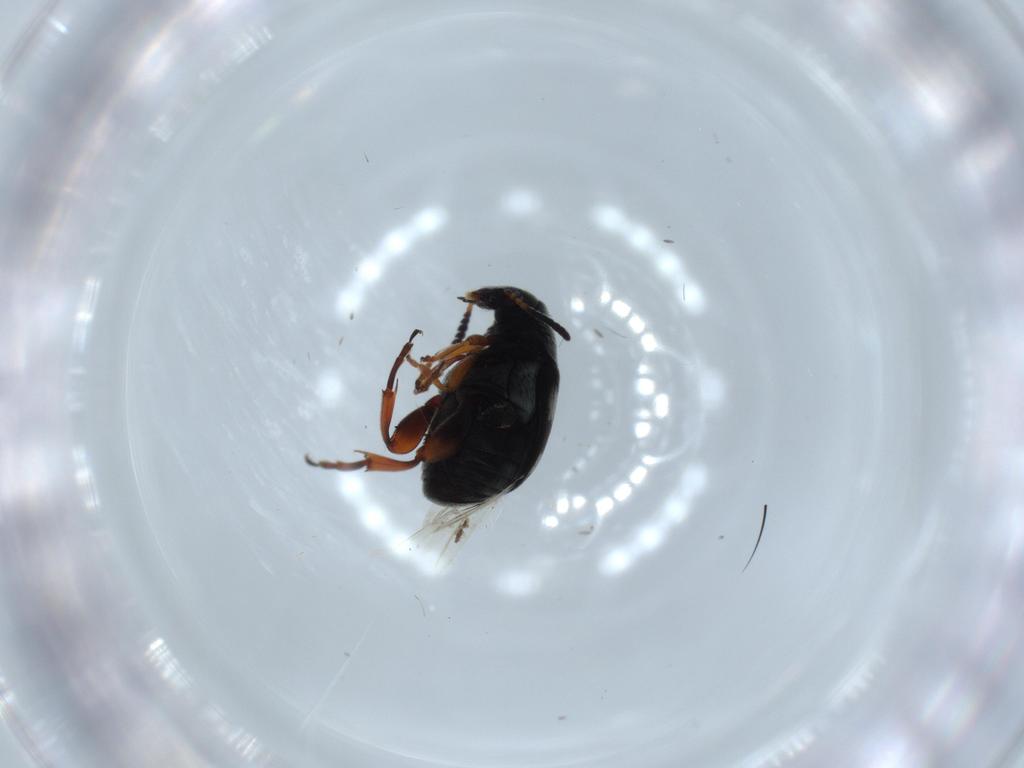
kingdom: Animalia
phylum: Arthropoda
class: Insecta
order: Coleoptera
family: Chrysomelidae
